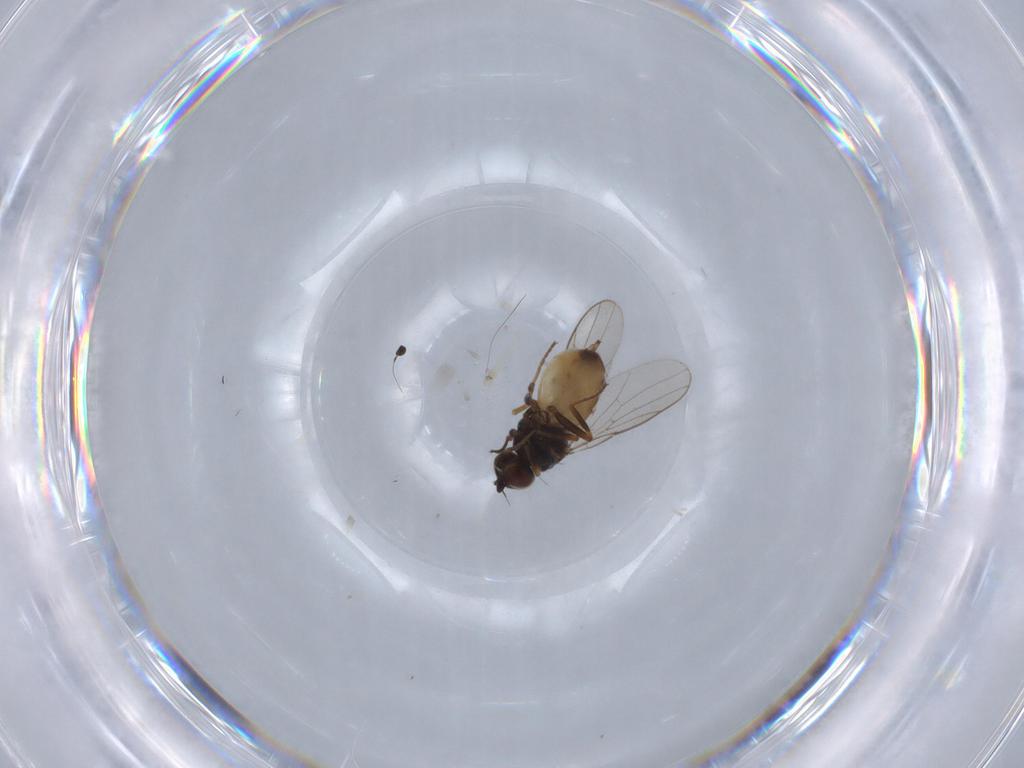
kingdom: Animalia
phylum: Arthropoda
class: Insecta
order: Diptera
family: Chloropidae
